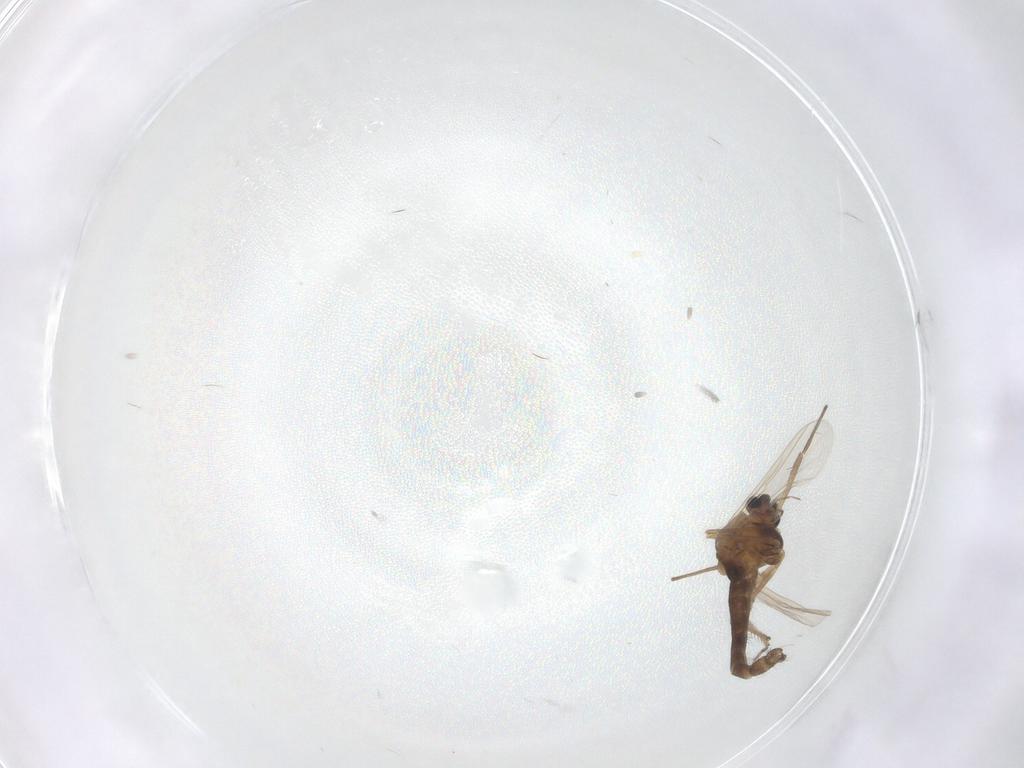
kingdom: Animalia
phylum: Arthropoda
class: Insecta
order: Diptera
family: Chironomidae
